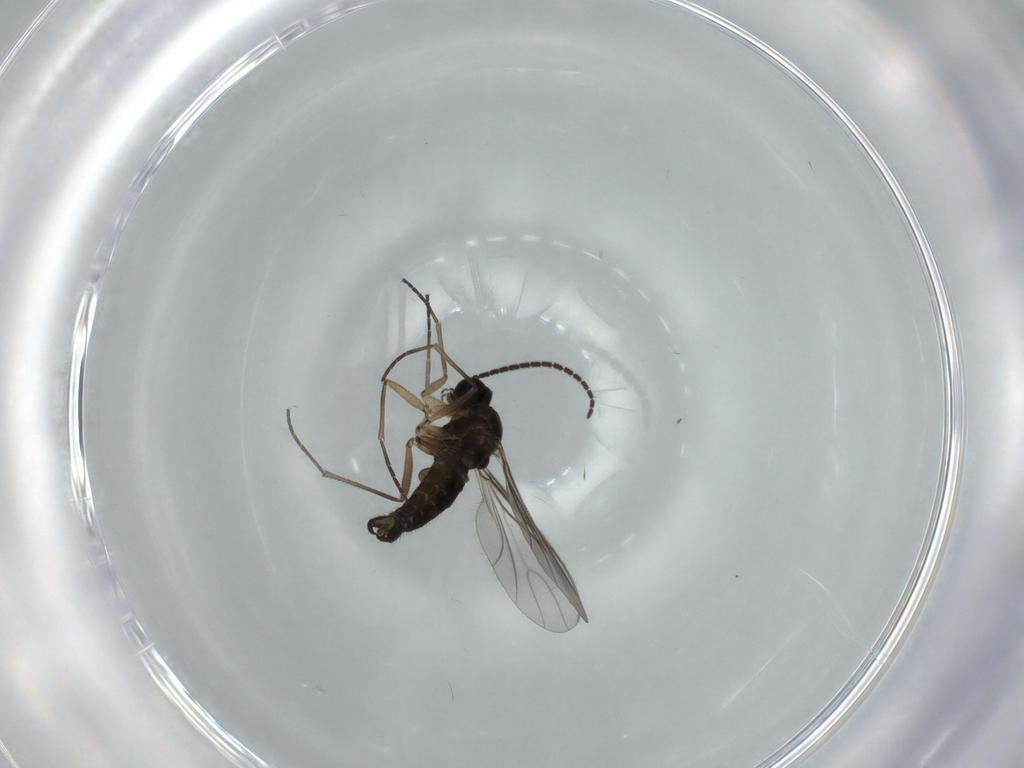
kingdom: Animalia
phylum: Arthropoda
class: Insecta
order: Diptera
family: Sciaridae
